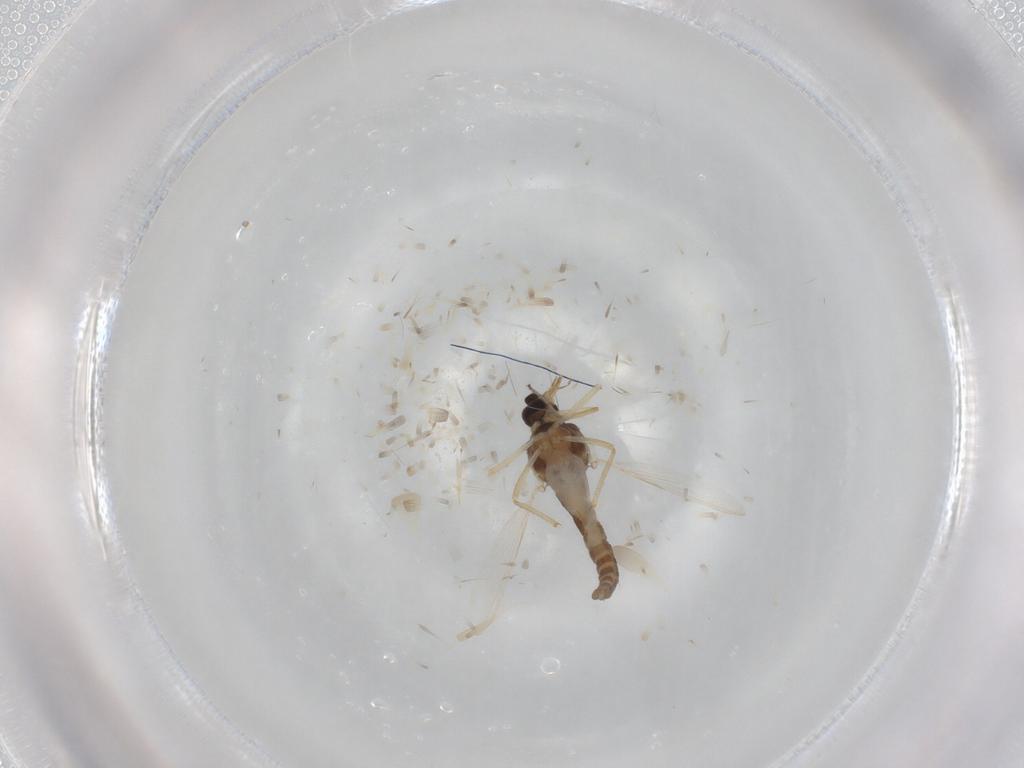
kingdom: Animalia
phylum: Arthropoda
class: Insecta
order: Diptera
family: Ceratopogonidae
